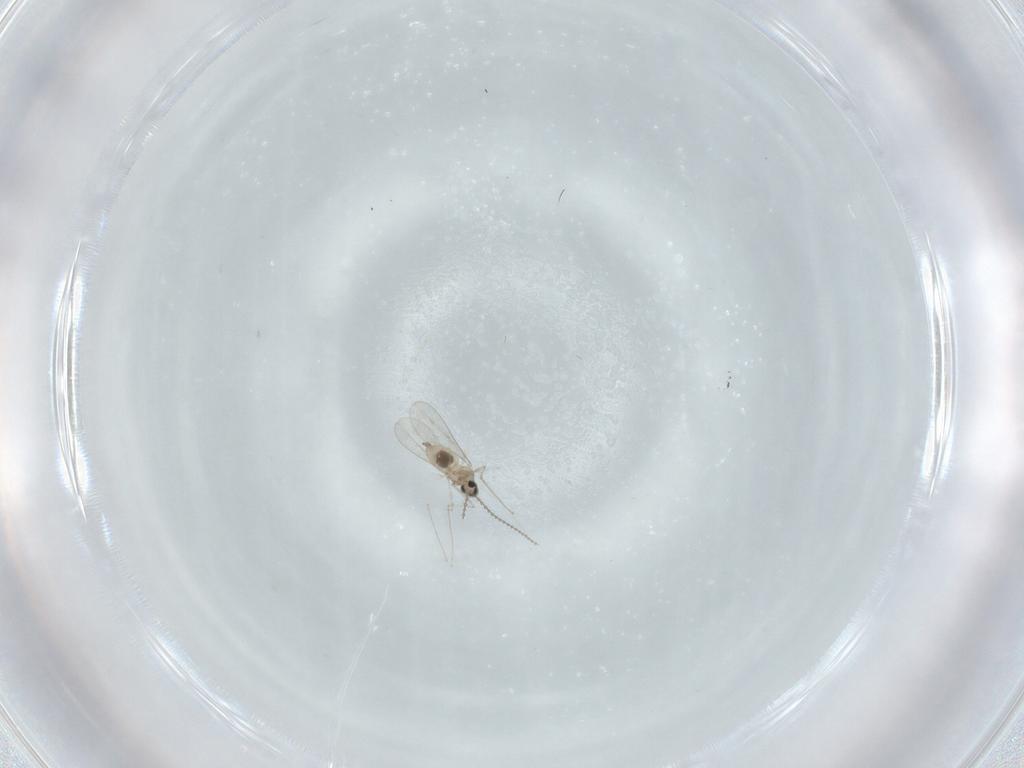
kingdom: Animalia
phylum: Arthropoda
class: Insecta
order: Diptera
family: Cecidomyiidae
